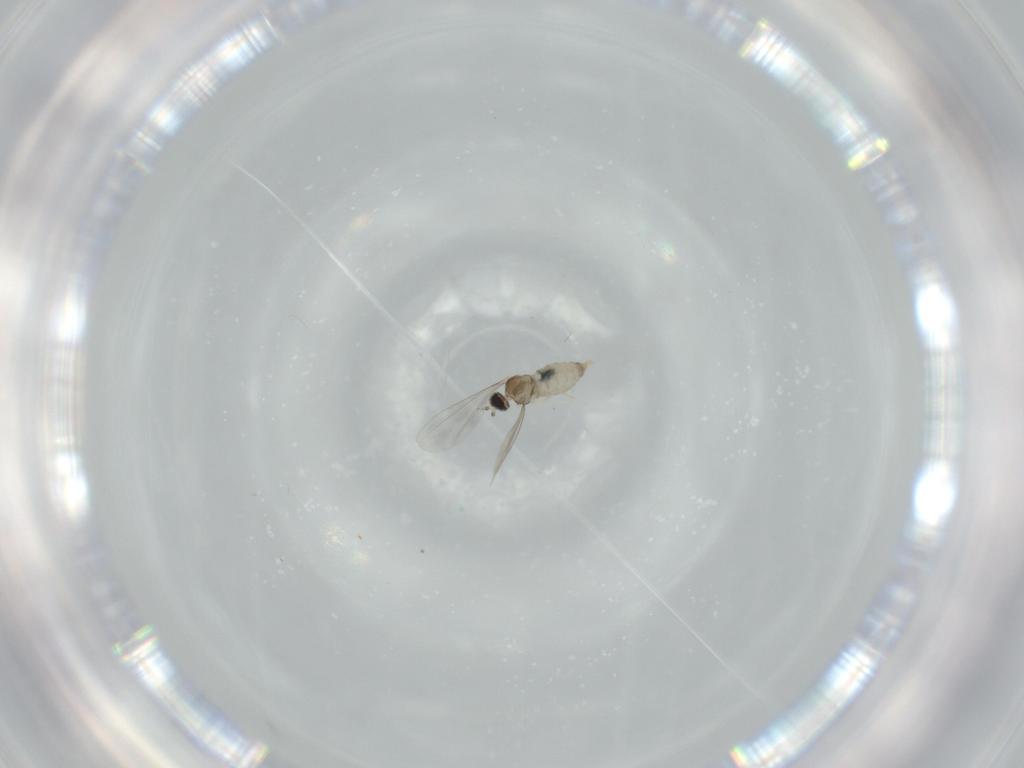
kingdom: Animalia
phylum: Arthropoda
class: Insecta
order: Diptera
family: Cecidomyiidae
